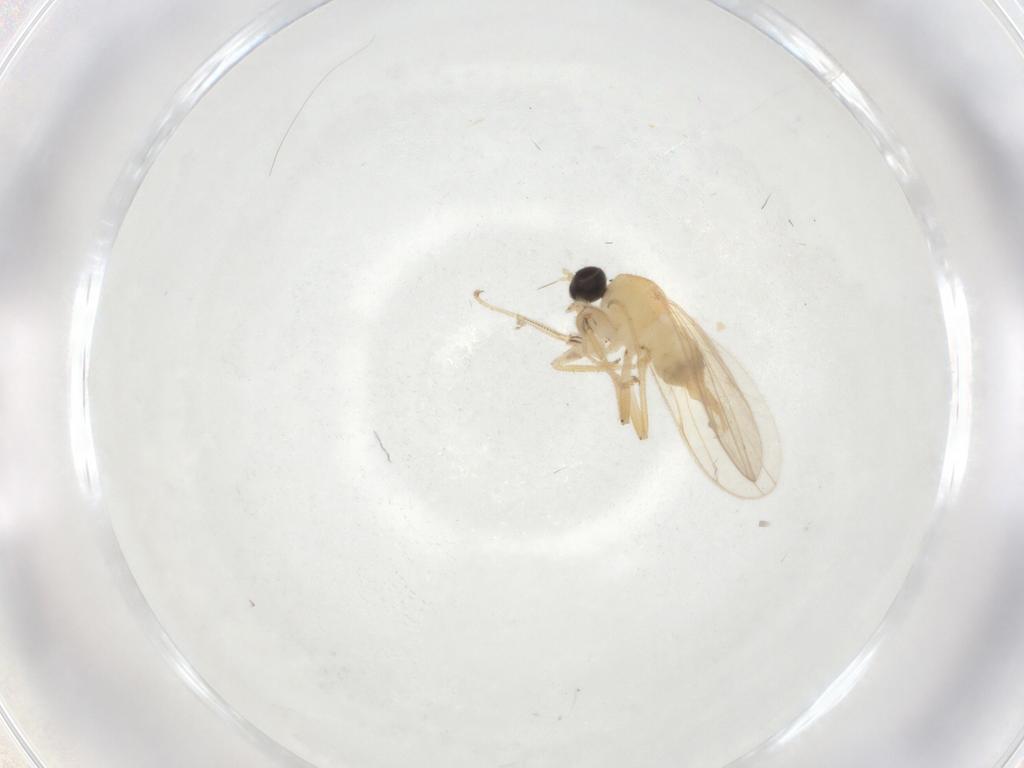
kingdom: Animalia
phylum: Arthropoda
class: Insecta
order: Diptera
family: Hybotidae
